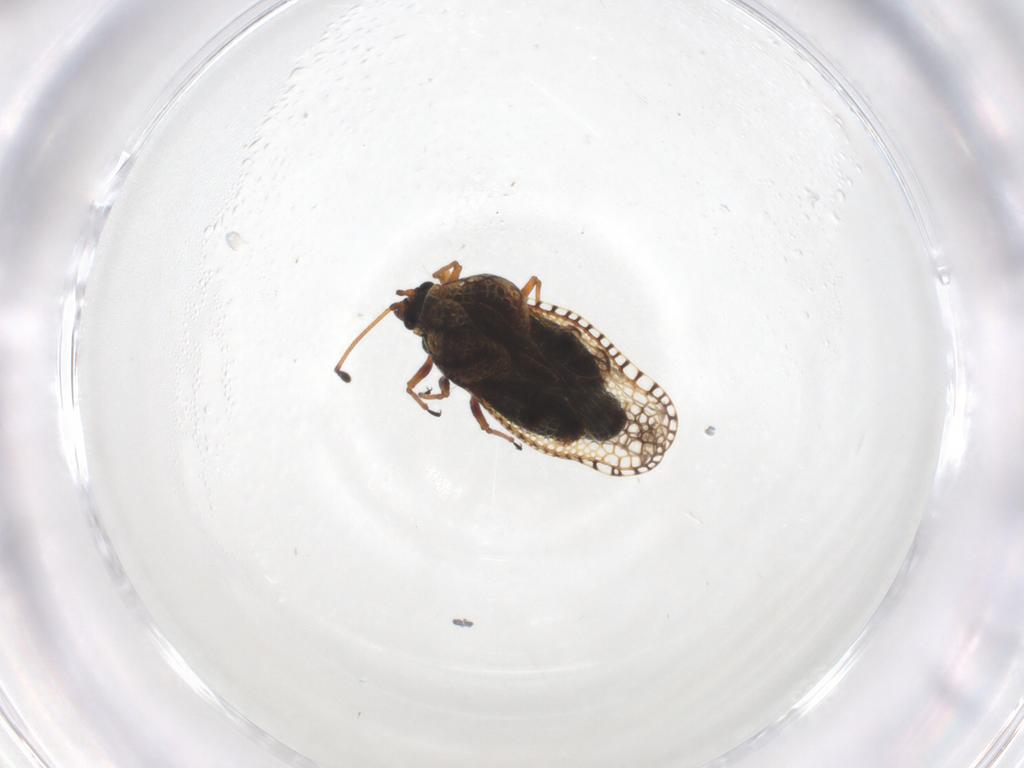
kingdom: Animalia
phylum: Arthropoda
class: Insecta
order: Hemiptera
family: Tingidae
